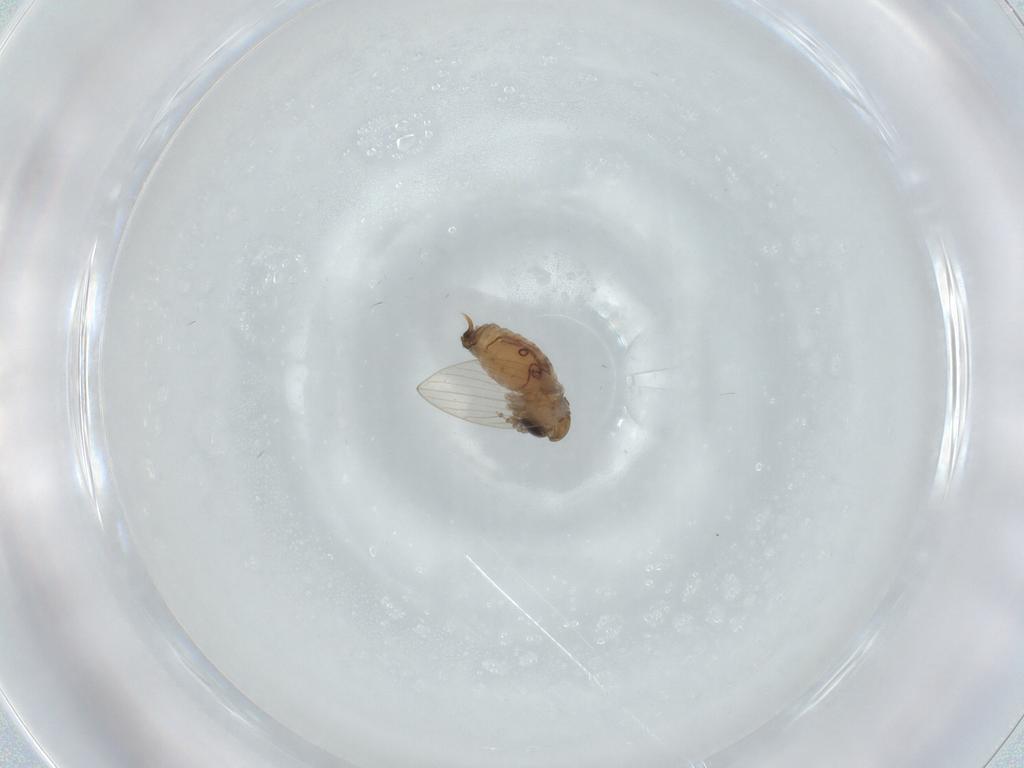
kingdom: Animalia
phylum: Arthropoda
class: Insecta
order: Diptera
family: Psychodidae
